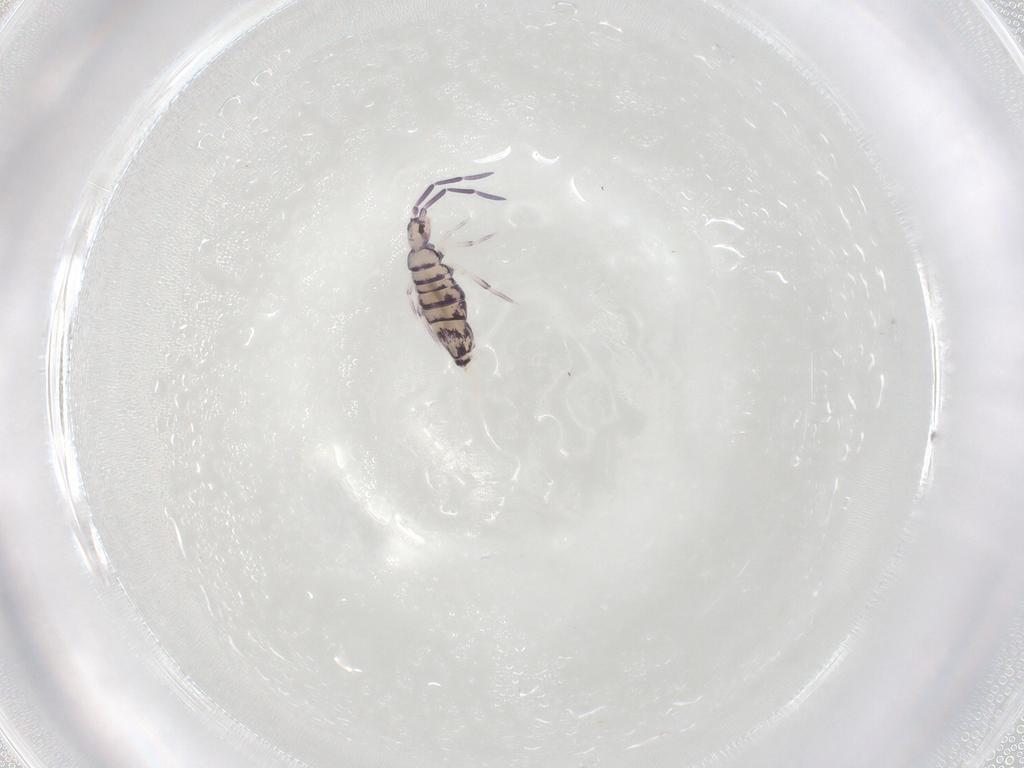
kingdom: Animalia
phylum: Arthropoda
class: Collembola
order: Entomobryomorpha
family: Entomobryidae
